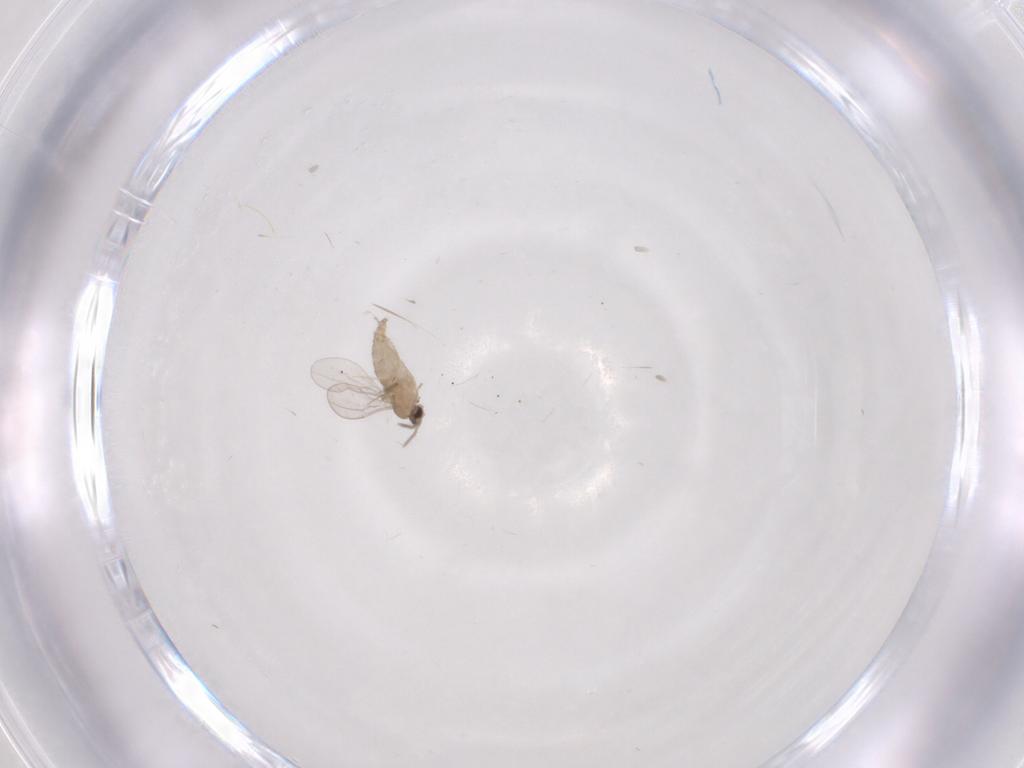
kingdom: Animalia
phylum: Arthropoda
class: Insecta
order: Diptera
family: Cecidomyiidae
